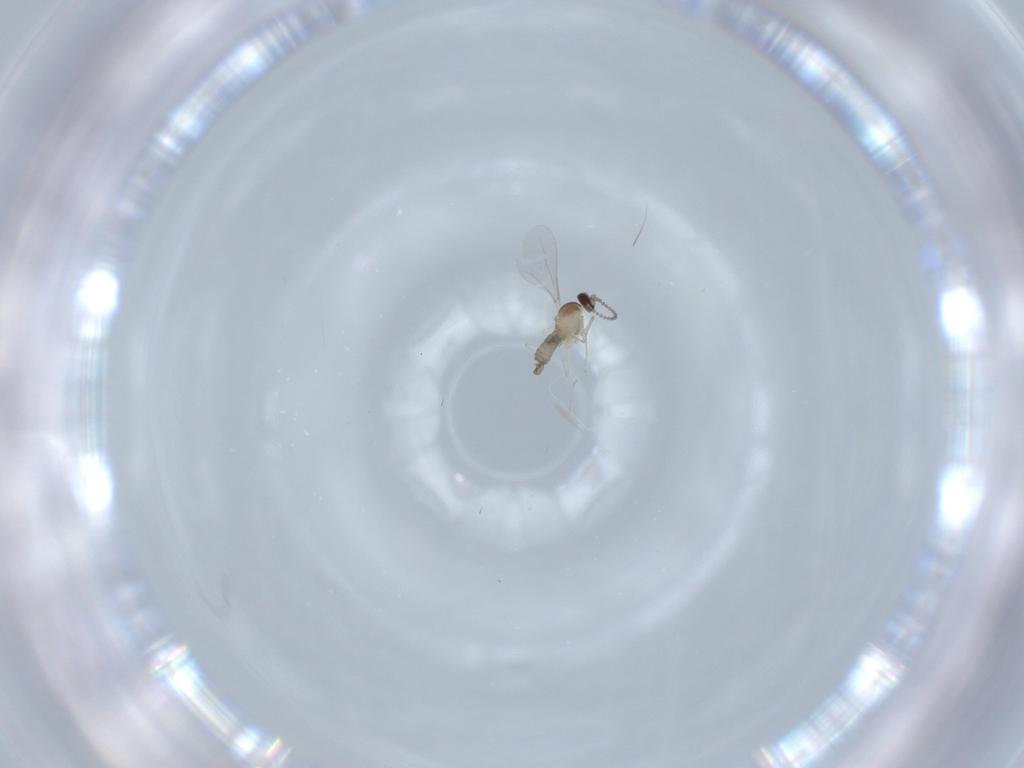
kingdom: Animalia
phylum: Arthropoda
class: Insecta
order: Diptera
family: Cecidomyiidae
